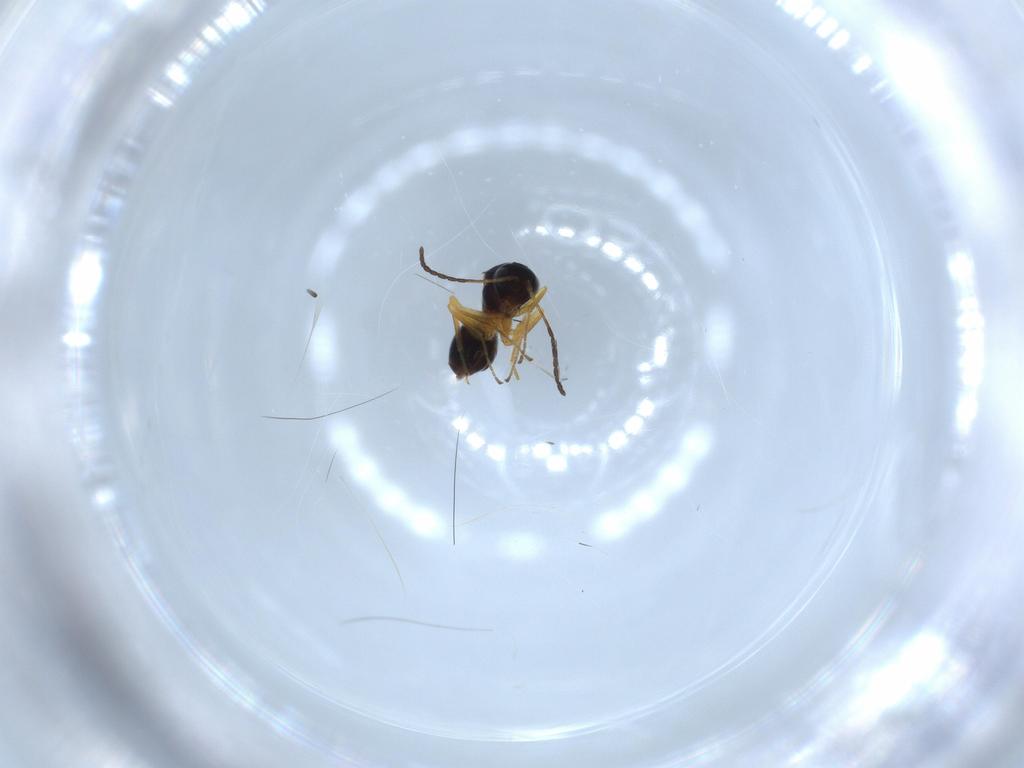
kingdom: Animalia
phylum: Arthropoda
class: Insecta
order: Hymenoptera
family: Figitidae
